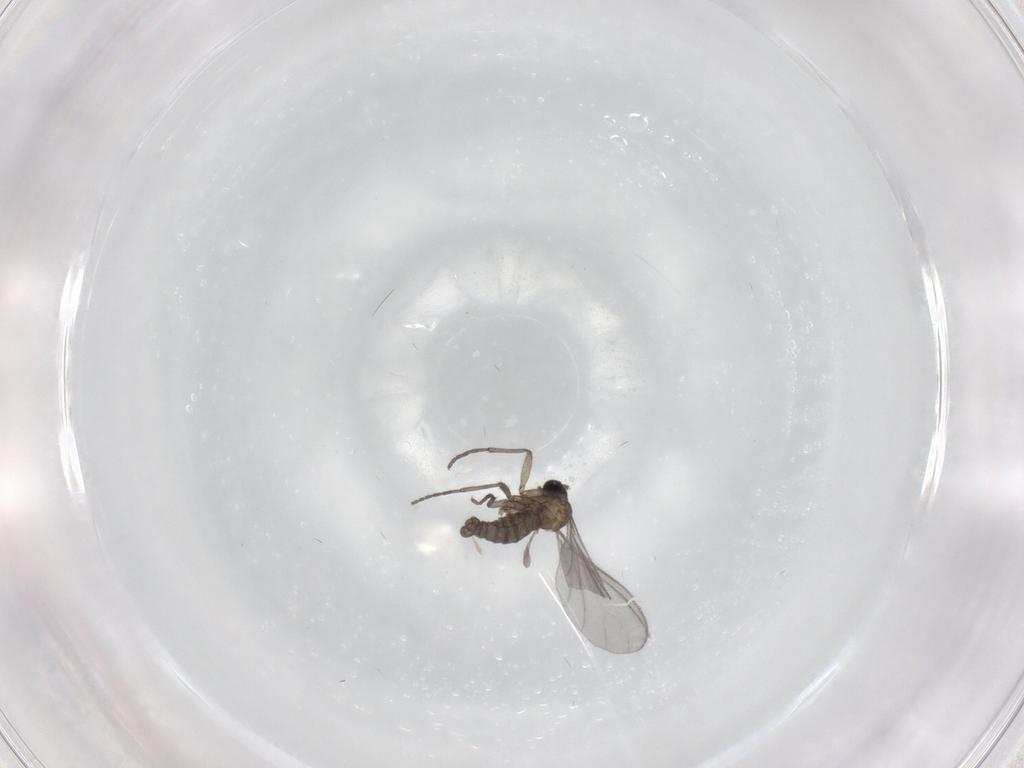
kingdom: Animalia
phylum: Arthropoda
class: Insecta
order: Diptera
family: Sciaridae
